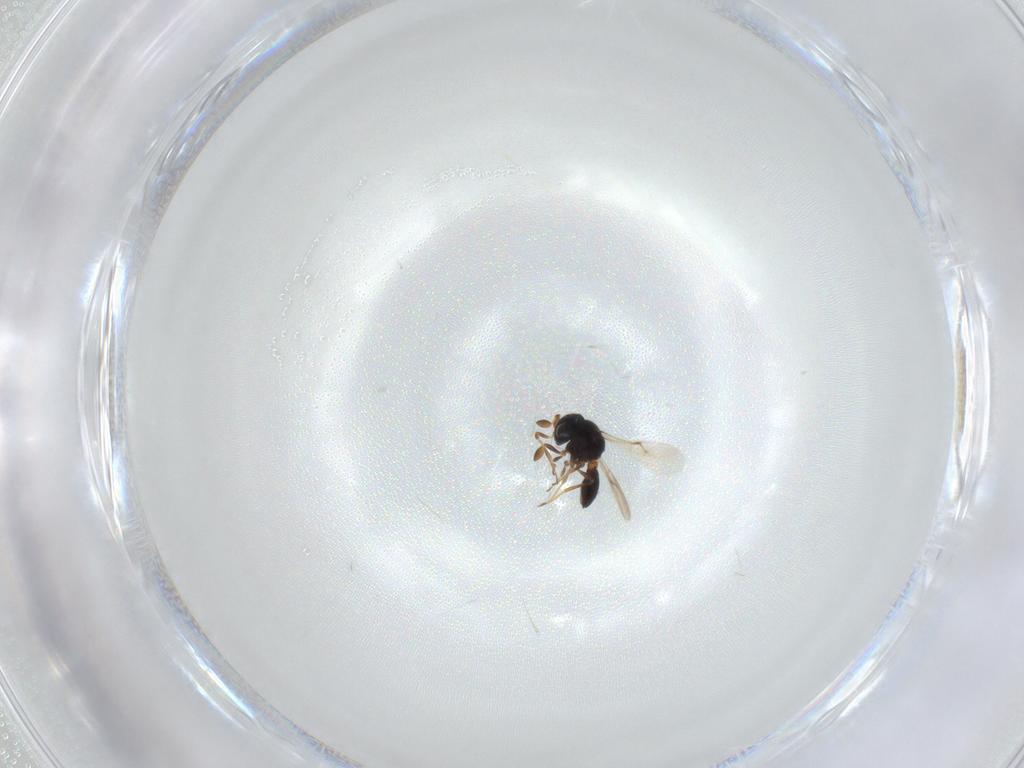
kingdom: Animalia
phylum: Arthropoda
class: Insecta
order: Hymenoptera
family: Scelionidae
